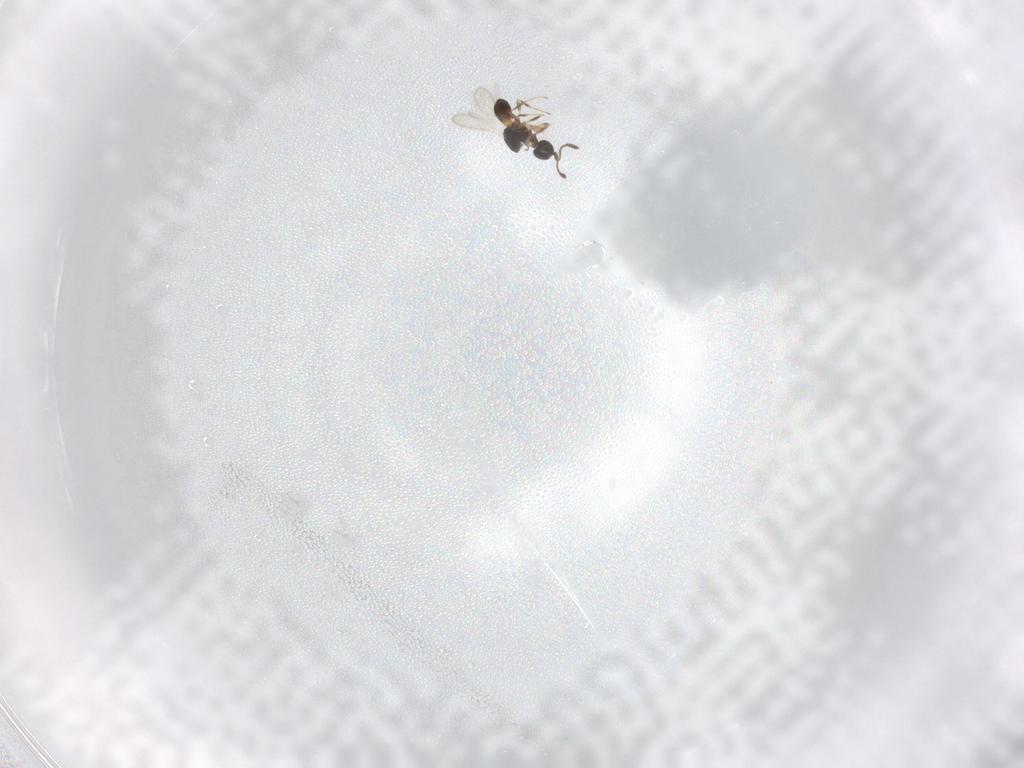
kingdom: Animalia
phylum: Arthropoda
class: Insecta
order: Hymenoptera
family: Scelionidae
